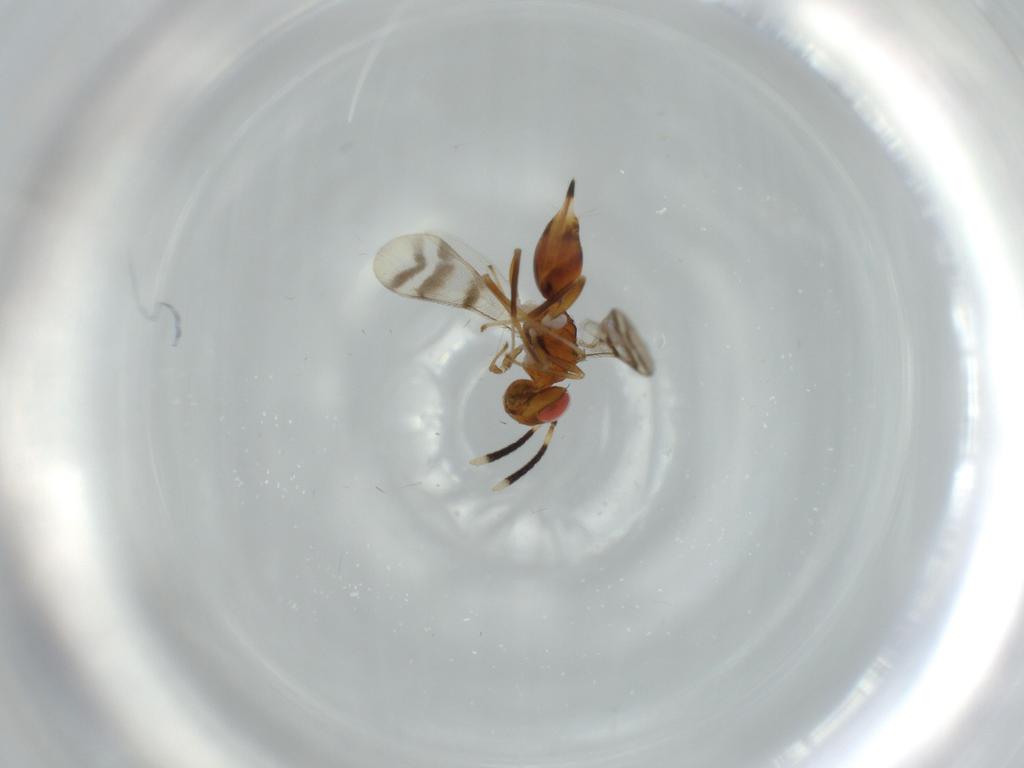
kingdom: Animalia
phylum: Arthropoda
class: Insecta
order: Hymenoptera
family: Diparidae
